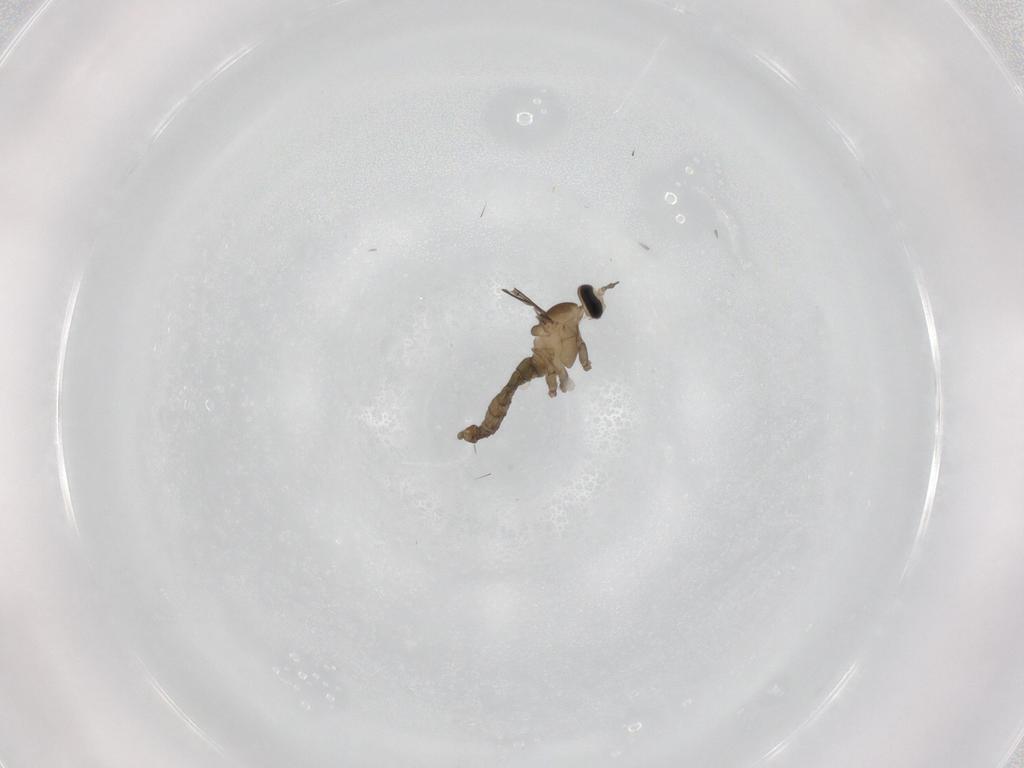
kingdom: Animalia
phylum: Arthropoda
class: Insecta
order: Diptera
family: Cecidomyiidae
